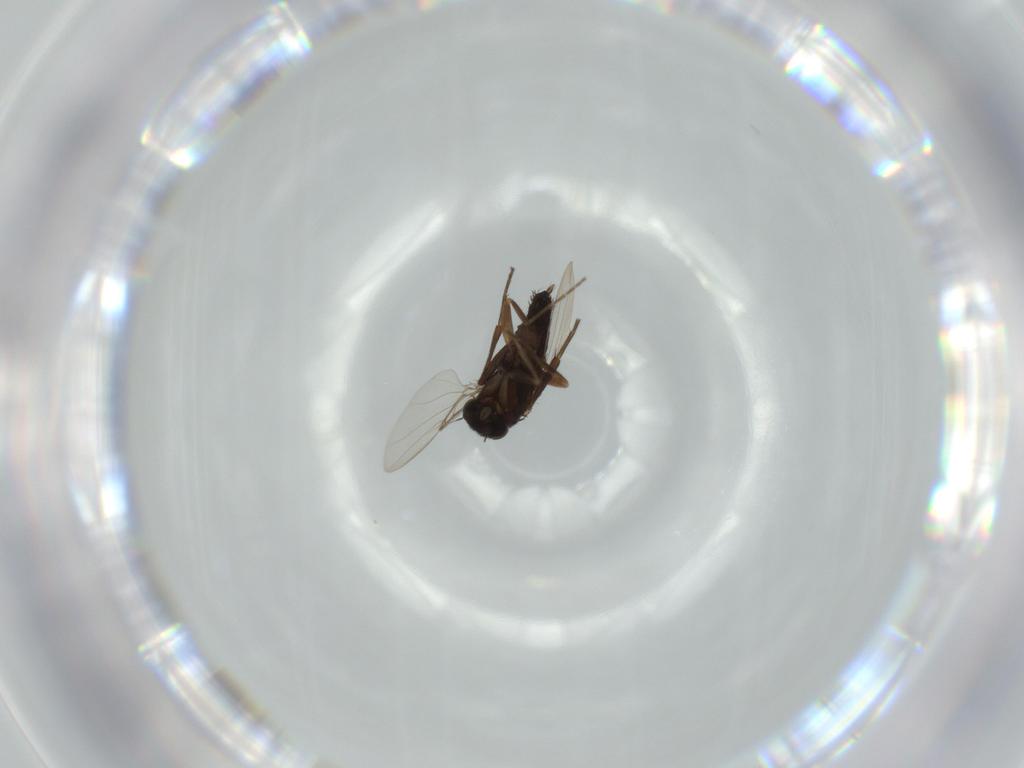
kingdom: Animalia
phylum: Arthropoda
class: Insecta
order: Diptera
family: Phoridae
